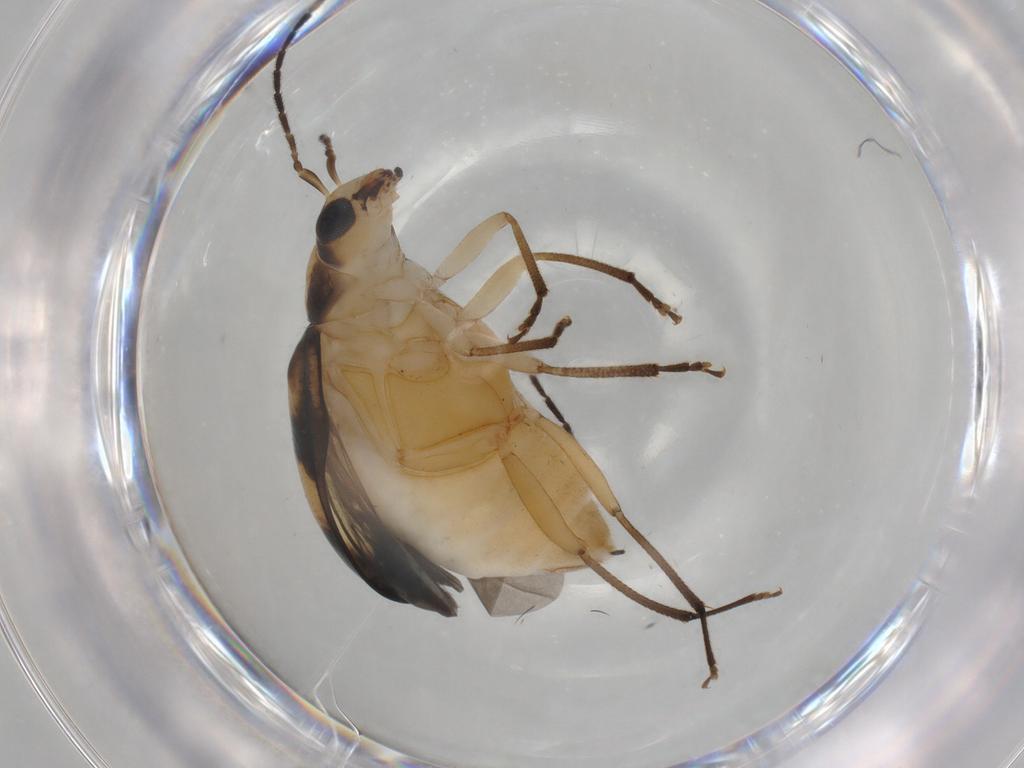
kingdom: Animalia
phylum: Arthropoda
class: Insecta
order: Coleoptera
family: Chrysomelidae
